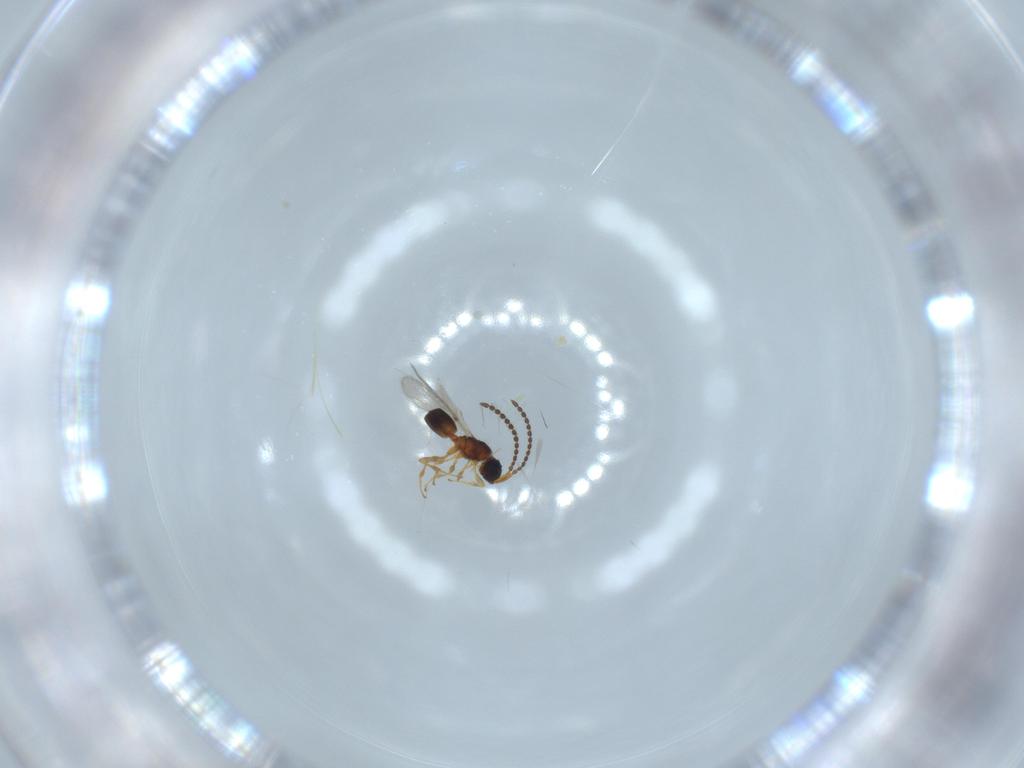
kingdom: Animalia
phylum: Arthropoda
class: Insecta
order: Hymenoptera
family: Diapriidae
